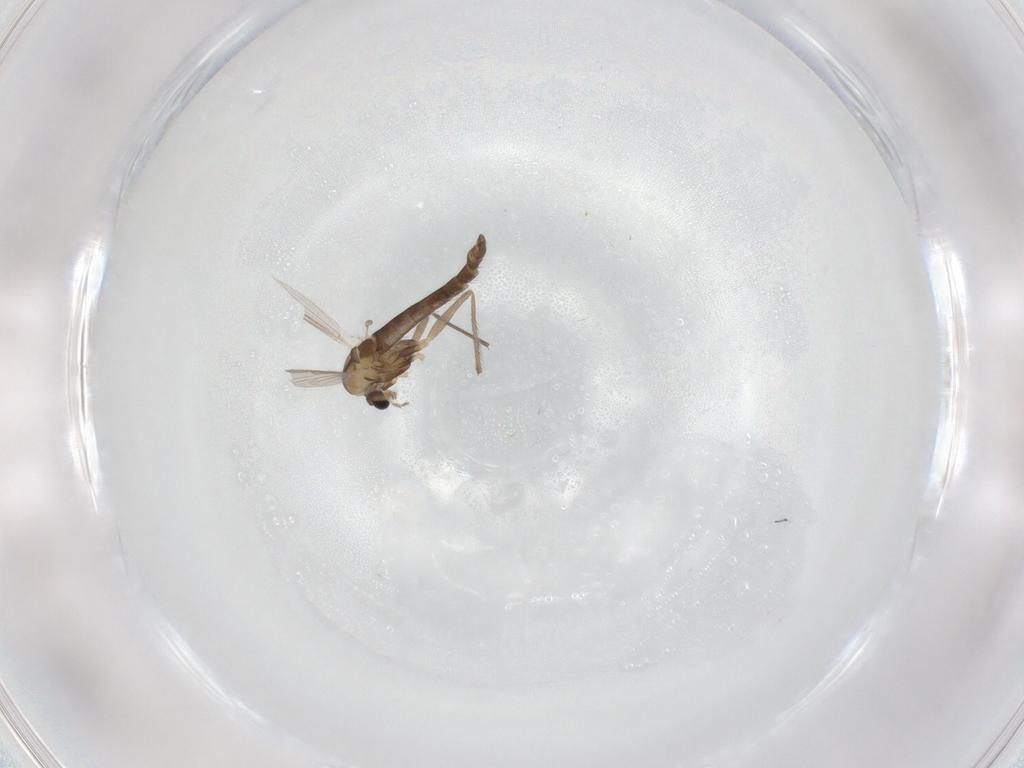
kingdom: Animalia
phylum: Arthropoda
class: Insecta
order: Diptera
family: Chironomidae
